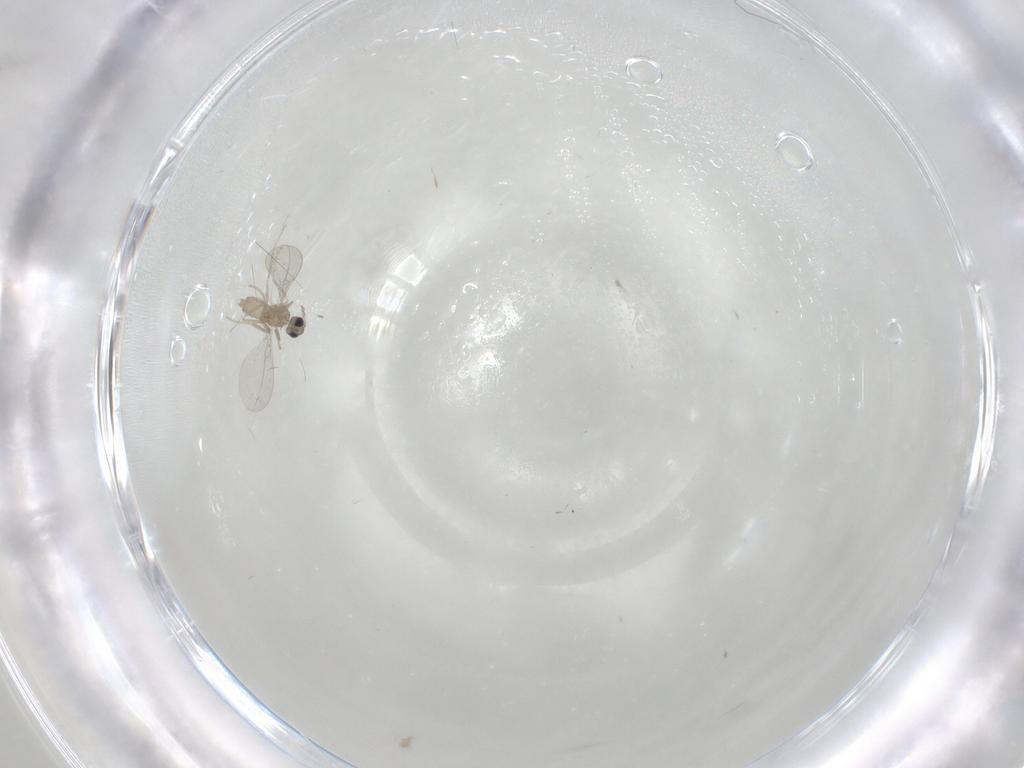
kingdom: Animalia
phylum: Arthropoda
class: Insecta
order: Diptera
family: Cecidomyiidae
